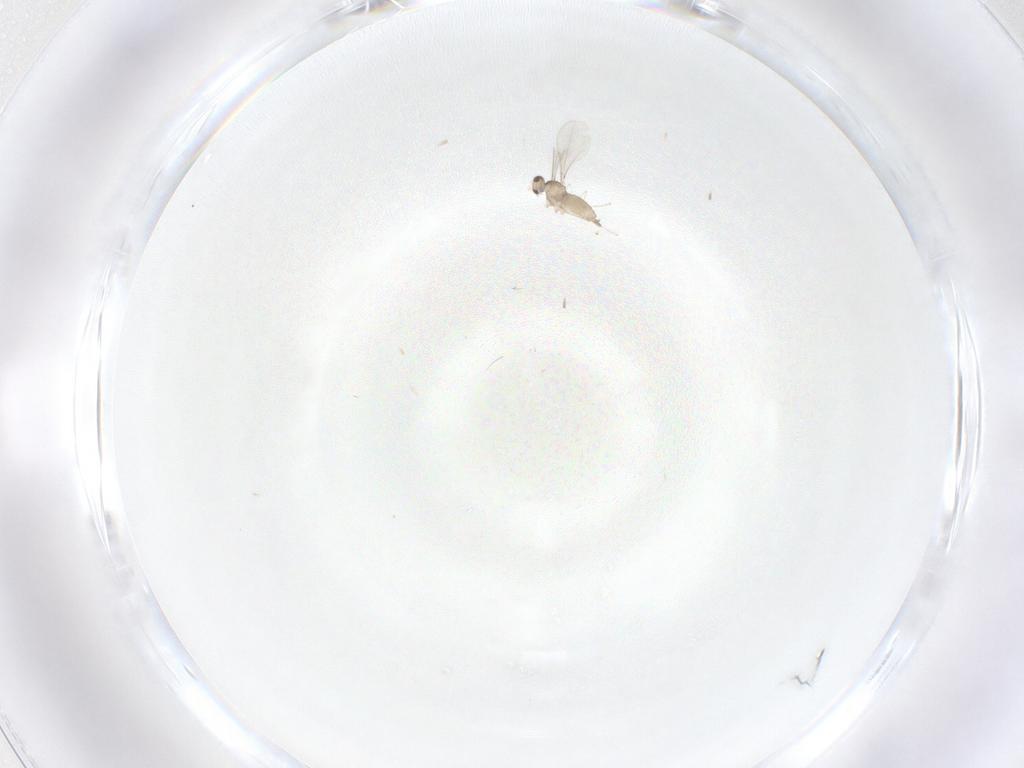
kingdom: Animalia
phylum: Arthropoda
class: Insecta
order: Diptera
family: Cecidomyiidae
